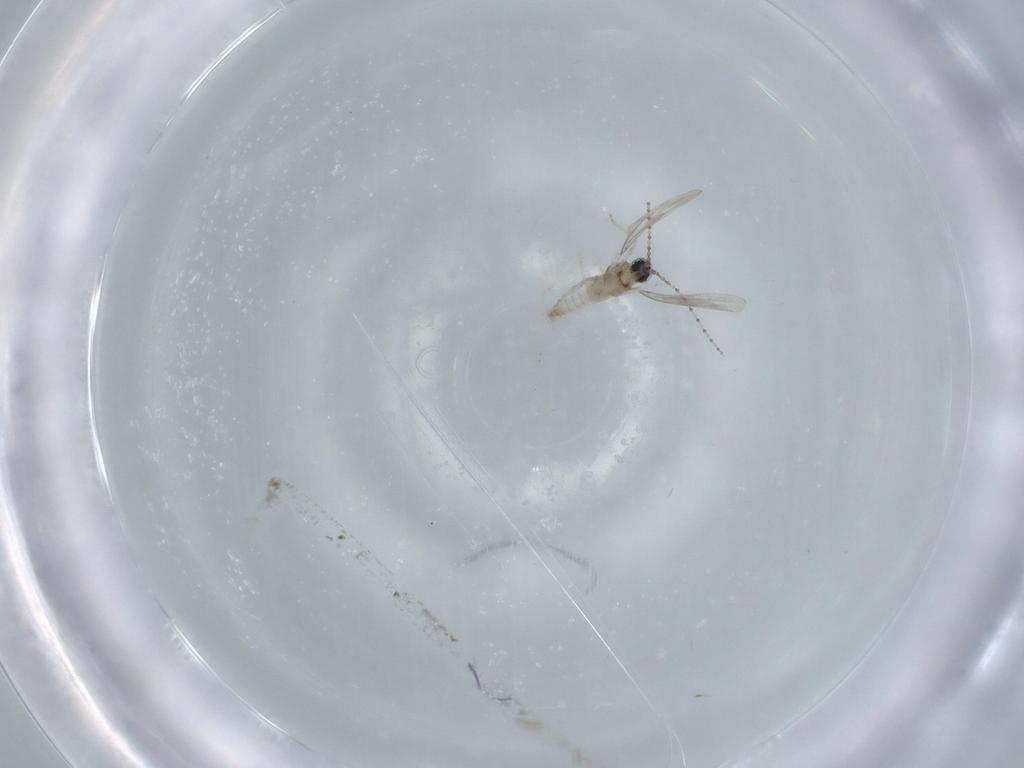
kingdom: Animalia
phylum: Arthropoda
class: Insecta
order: Diptera
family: Cecidomyiidae
